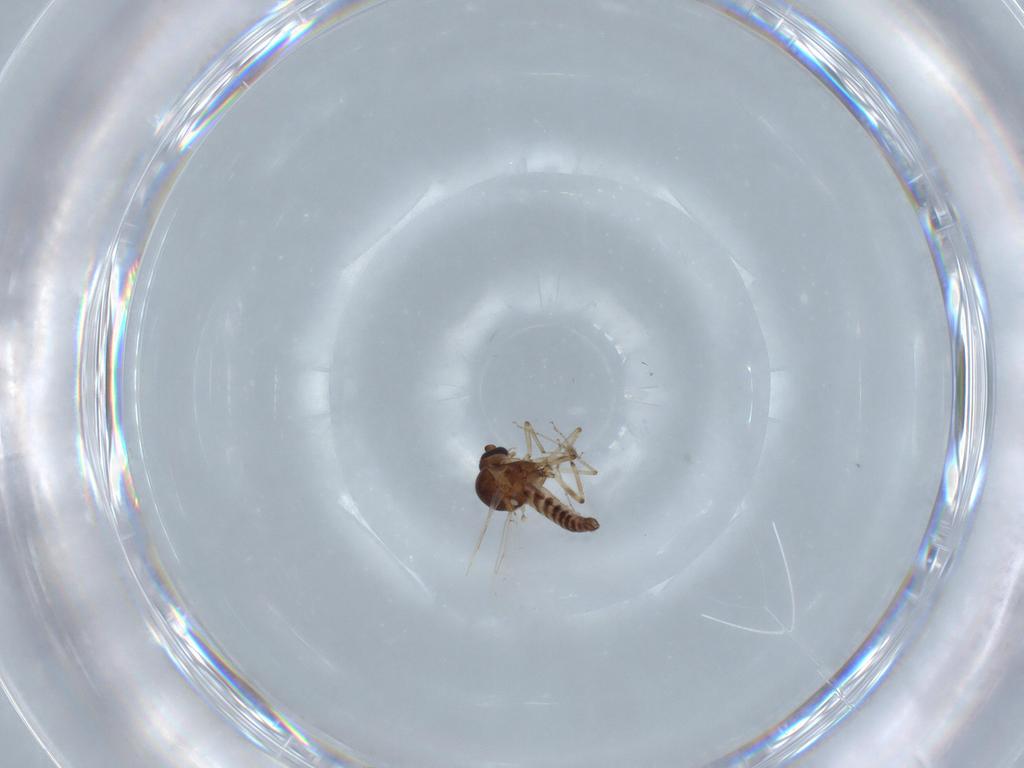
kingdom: Animalia
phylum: Arthropoda
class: Insecta
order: Diptera
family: Ceratopogonidae
